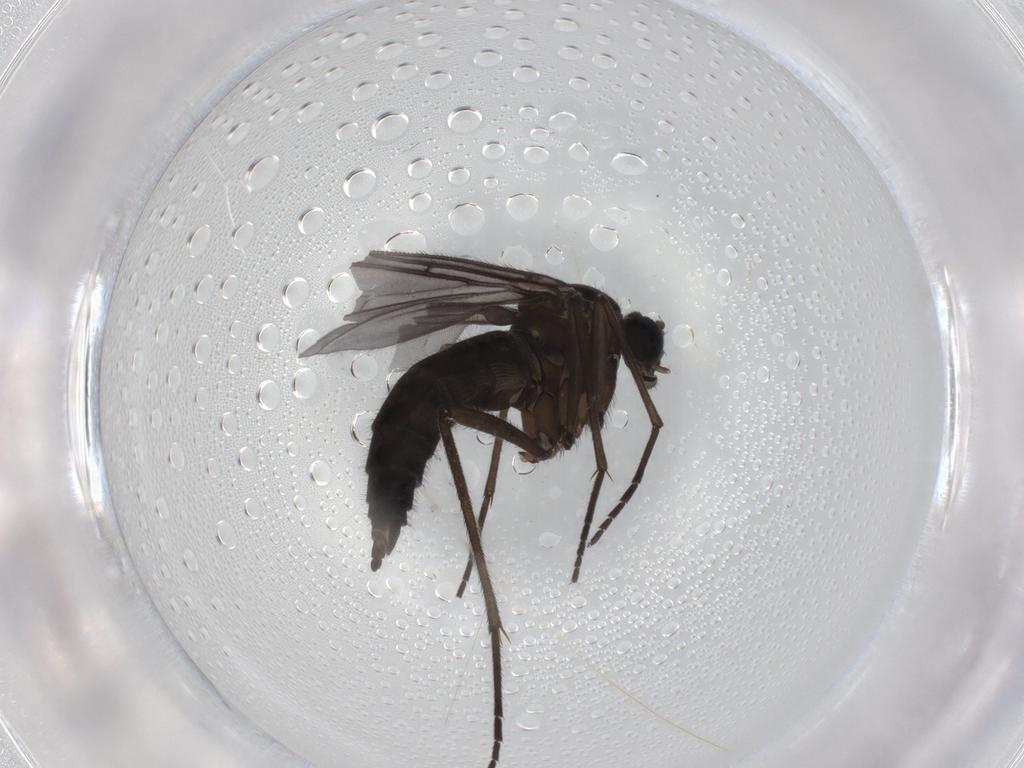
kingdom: Animalia
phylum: Arthropoda
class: Insecta
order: Diptera
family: Sciaridae
